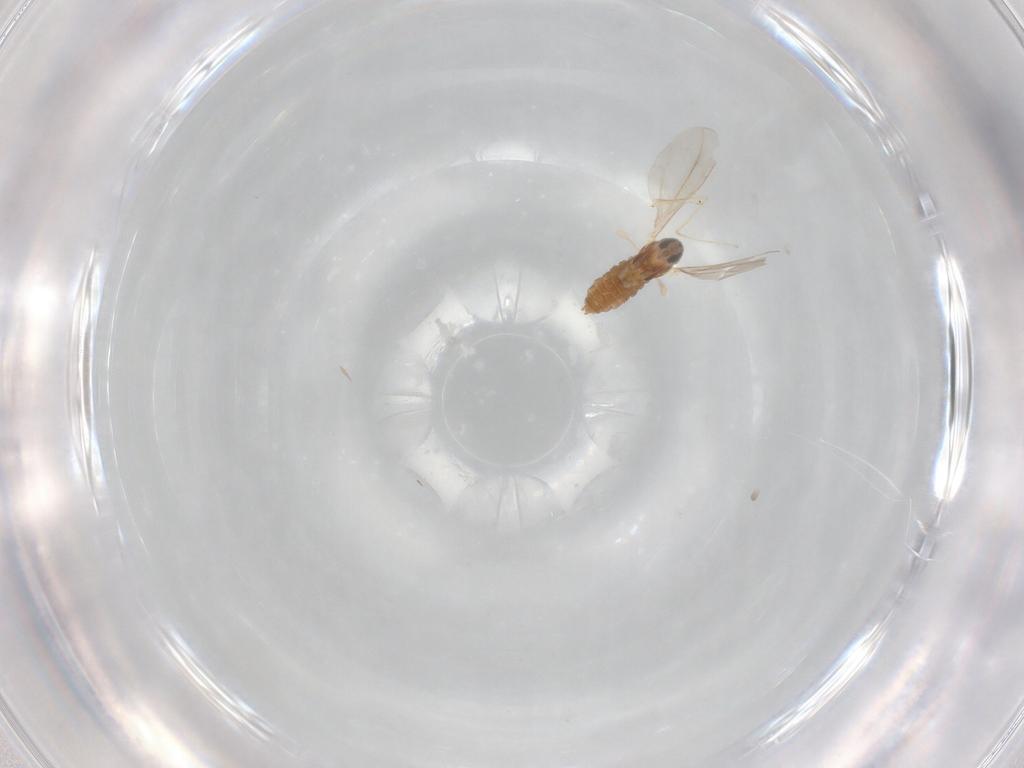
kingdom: Animalia
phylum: Arthropoda
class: Insecta
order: Diptera
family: Cecidomyiidae
